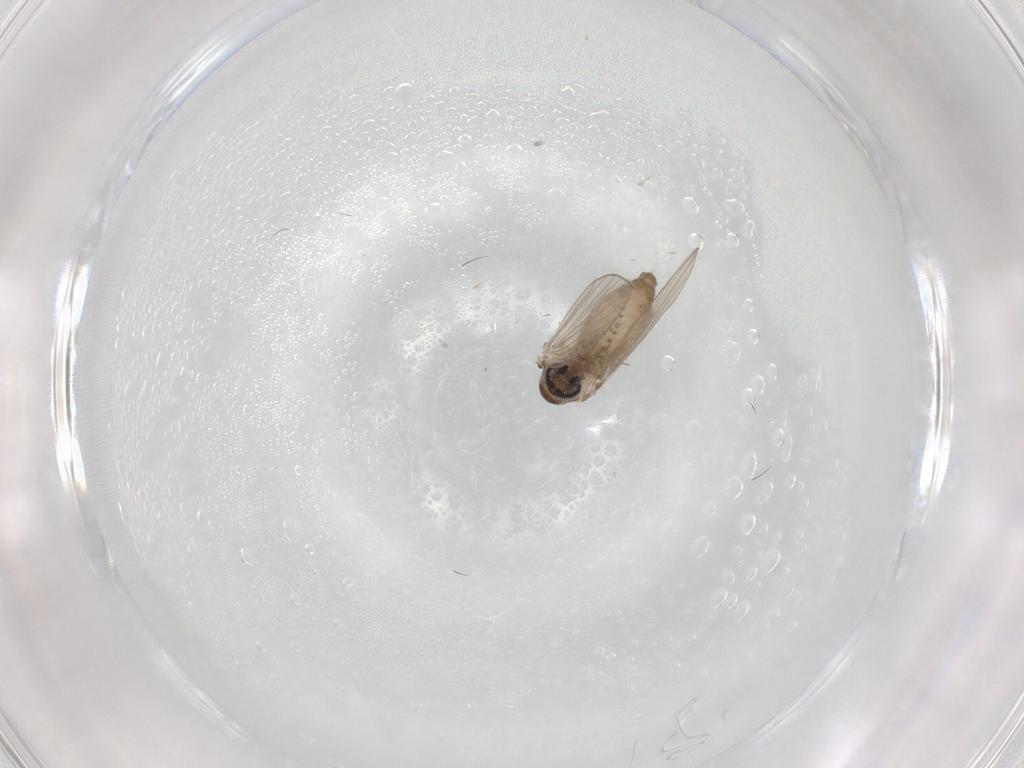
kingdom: Animalia
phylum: Arthropoda
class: Insecta
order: Diptera
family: Psychodidae
